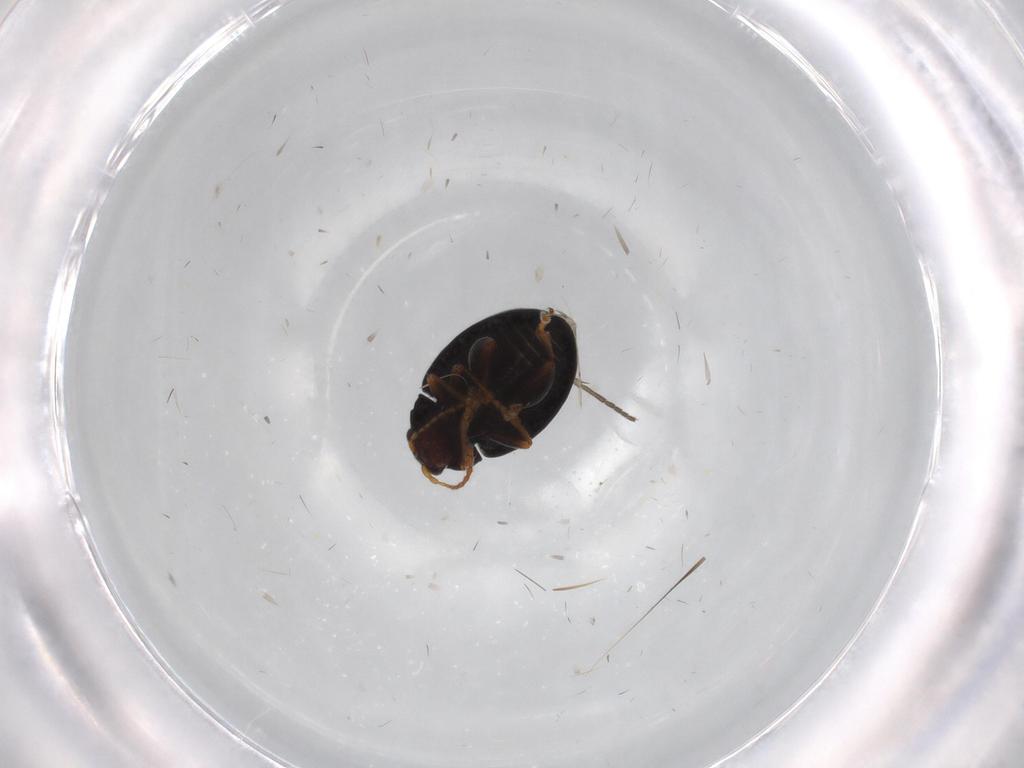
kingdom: Animalia
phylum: Arthropoda
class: Insecta
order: Coleoptera
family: Chrysomelidae
